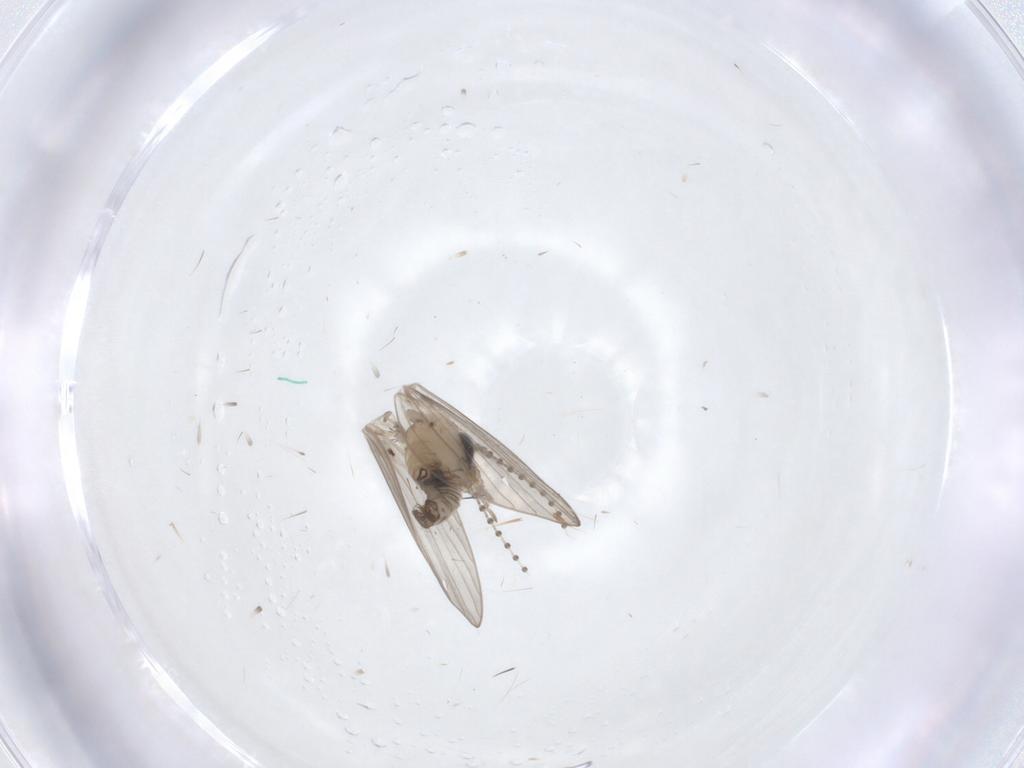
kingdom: Animalia
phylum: Arthropoda
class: Insecta
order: Diptera
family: Psychodidae
